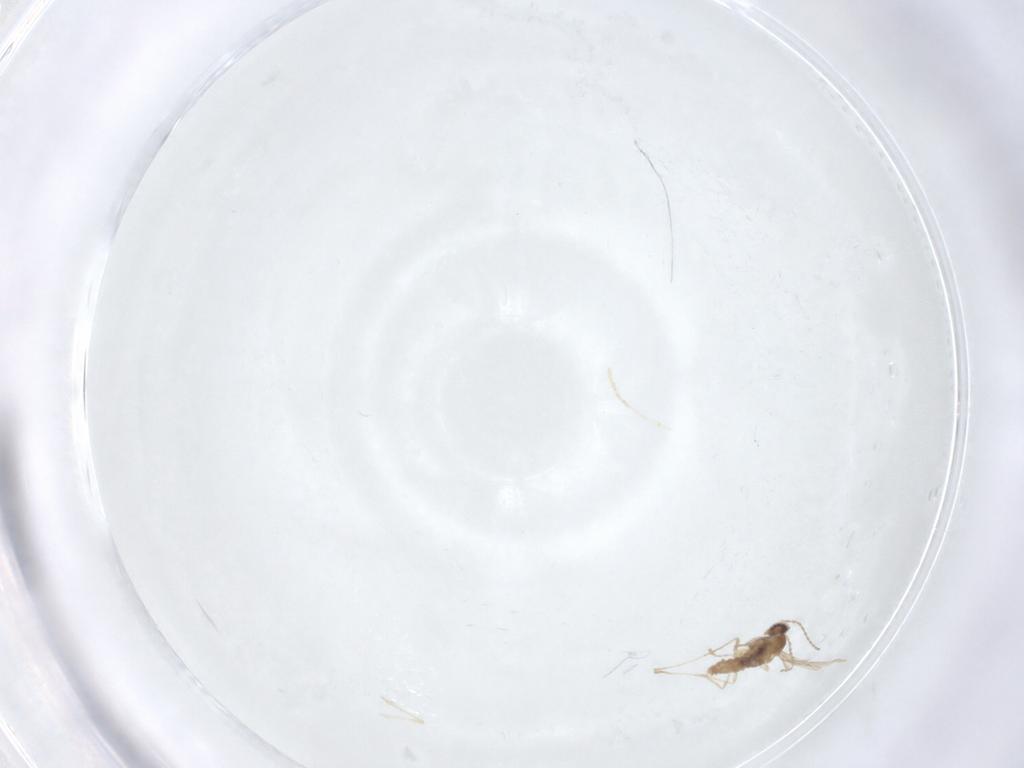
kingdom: Animalia
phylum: Arthropoda
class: Insecta
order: Diptera
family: Cecidomyiidae
